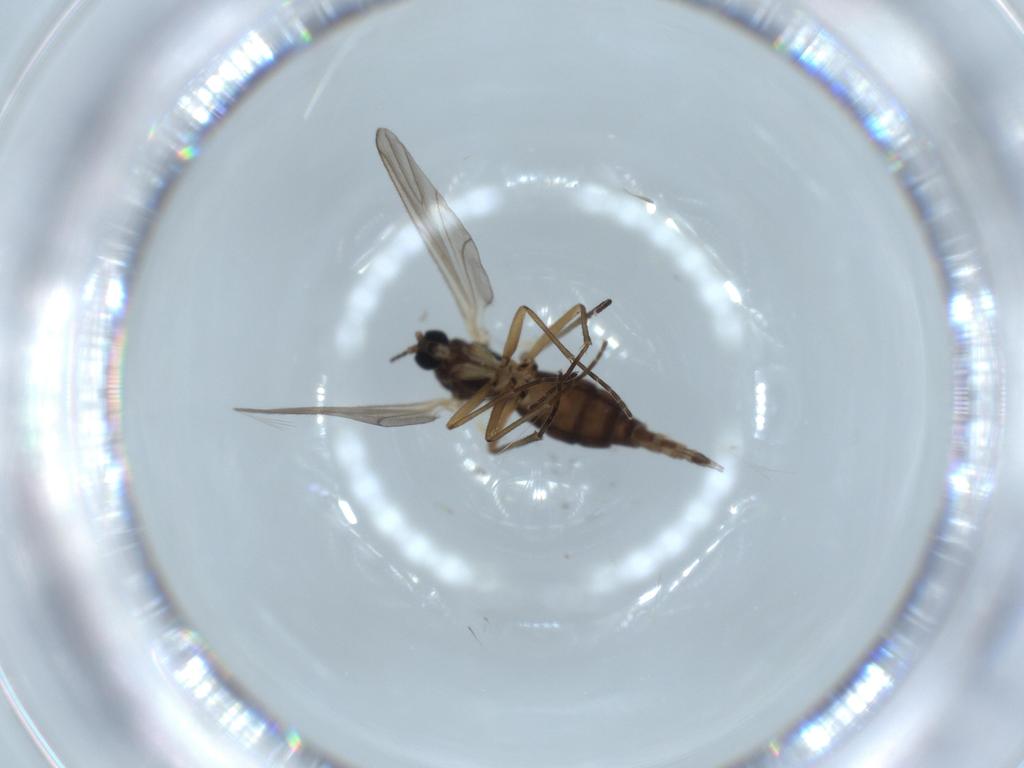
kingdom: Animalia
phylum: Arthropoda
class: Insecta
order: Diptera
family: Sciaridae
